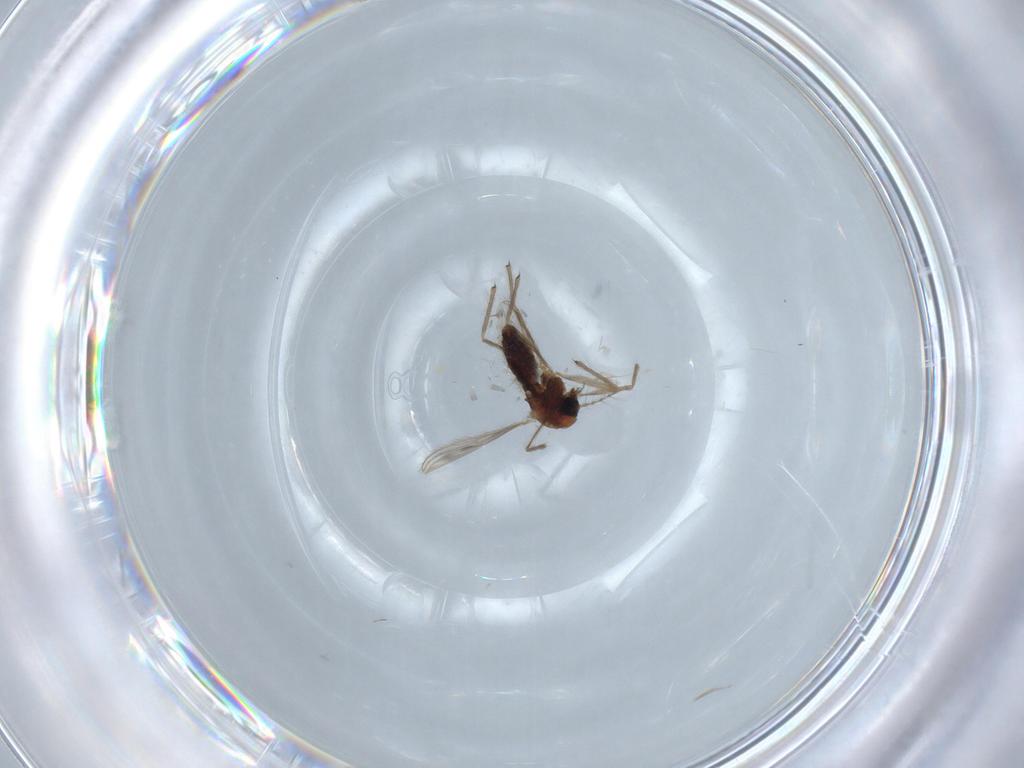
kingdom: Animalia
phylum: Arthropoda
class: Insecta
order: Diptera
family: Chironomidae
